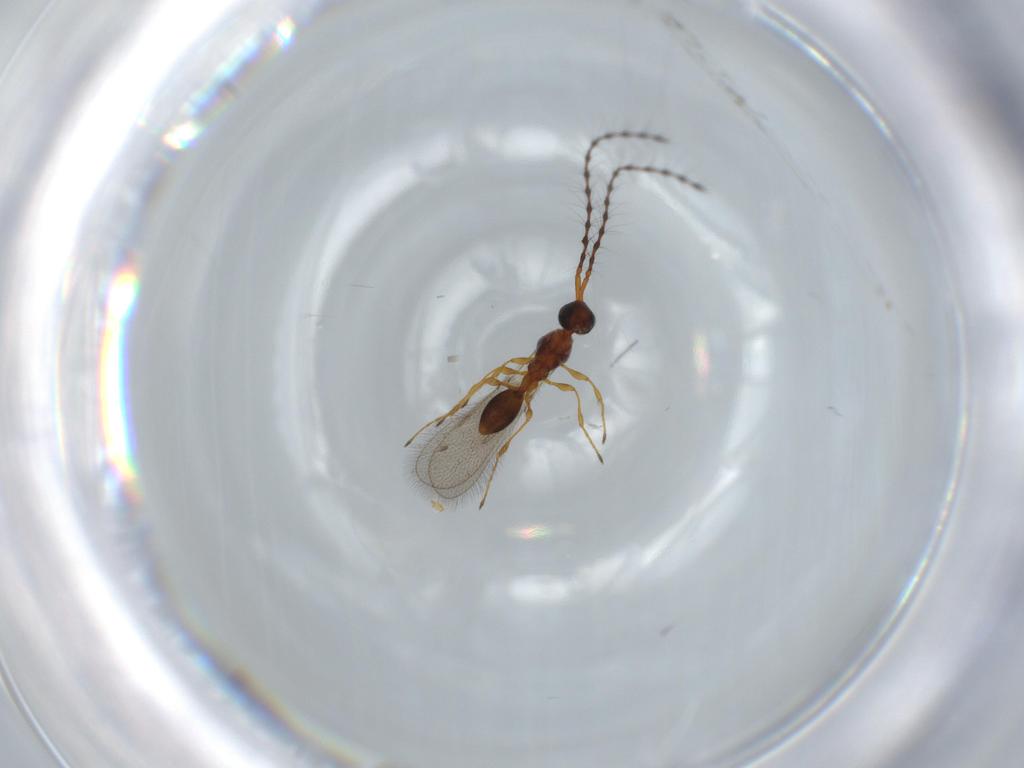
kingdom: Animalia
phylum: Arthropoda
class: Insecta
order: Hymenoptera
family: Diapriidae
